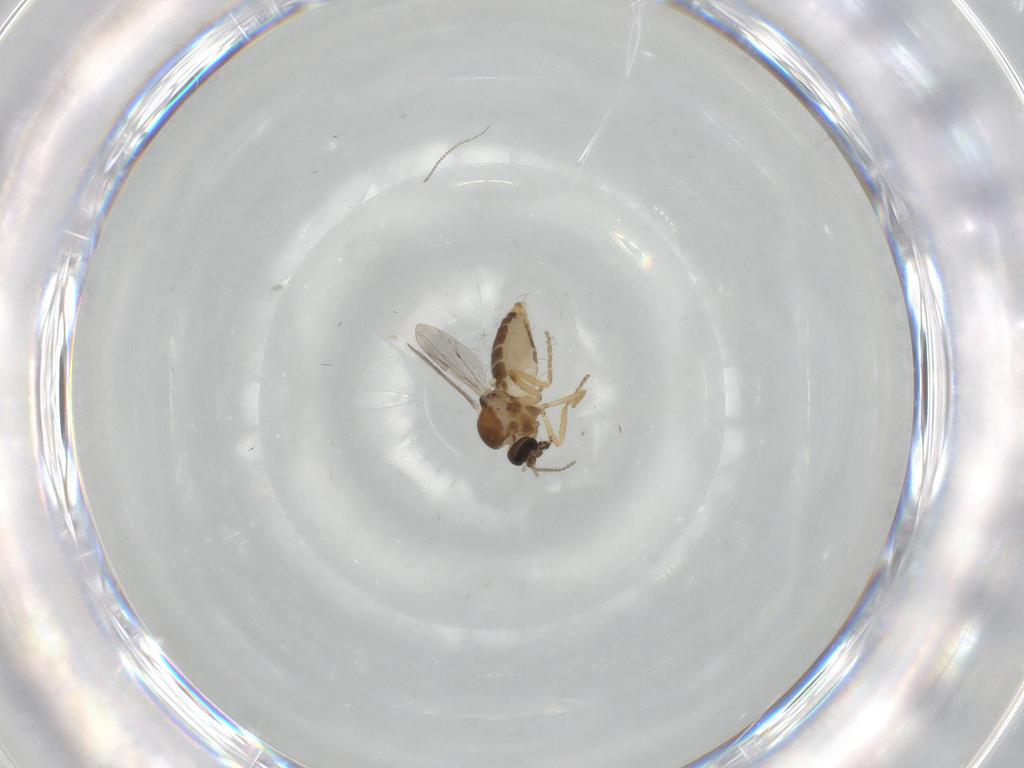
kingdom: Animalia
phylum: Arthropoda
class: Insecta
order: Diptera
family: Ceratopogonidae
